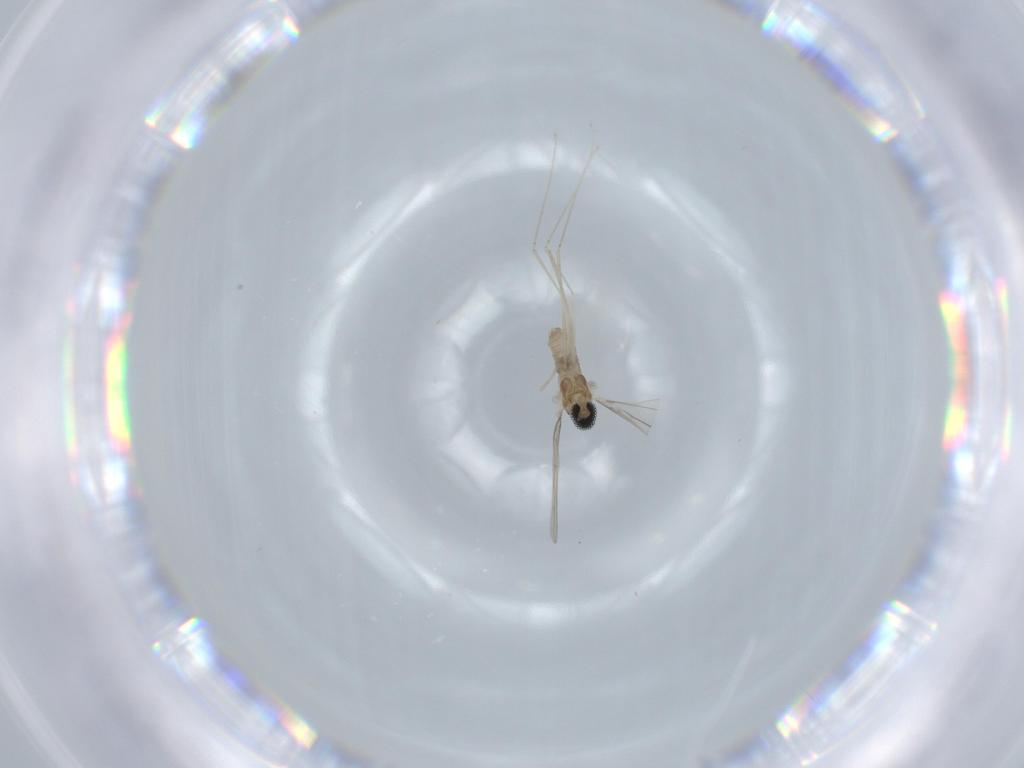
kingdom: Animalia
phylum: Arthropoda
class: Insecta
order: Diptera
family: Cecidomyiidae
